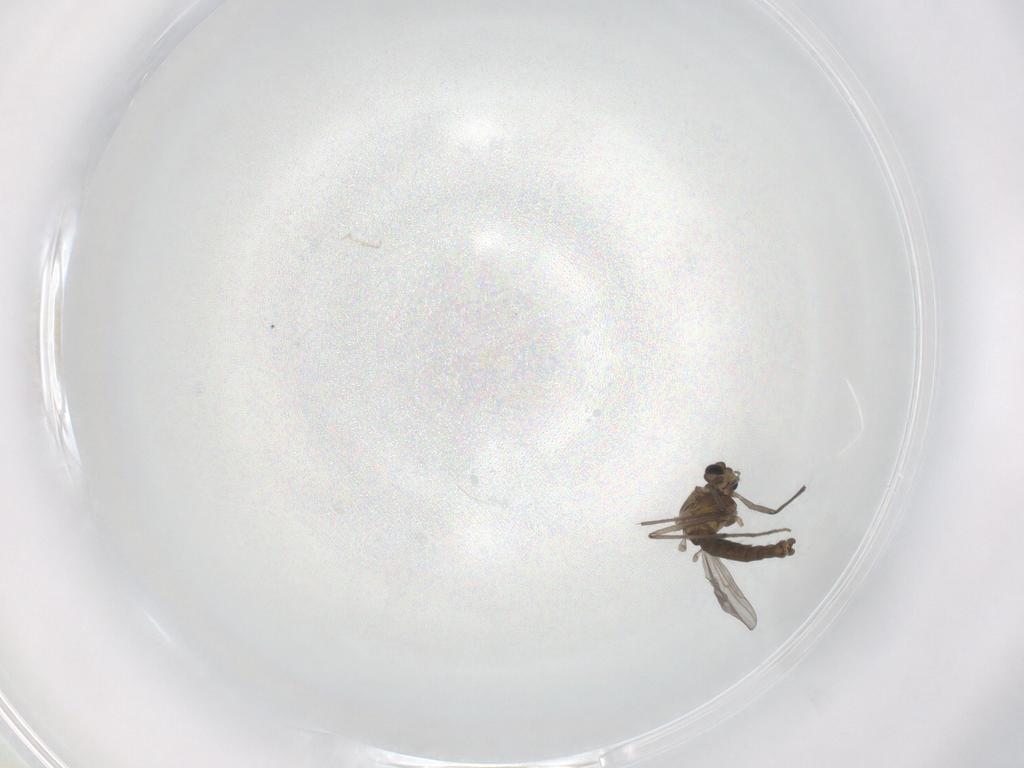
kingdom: Animalia
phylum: Arthropoda
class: Insecta
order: Diptera
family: Chironomidae
